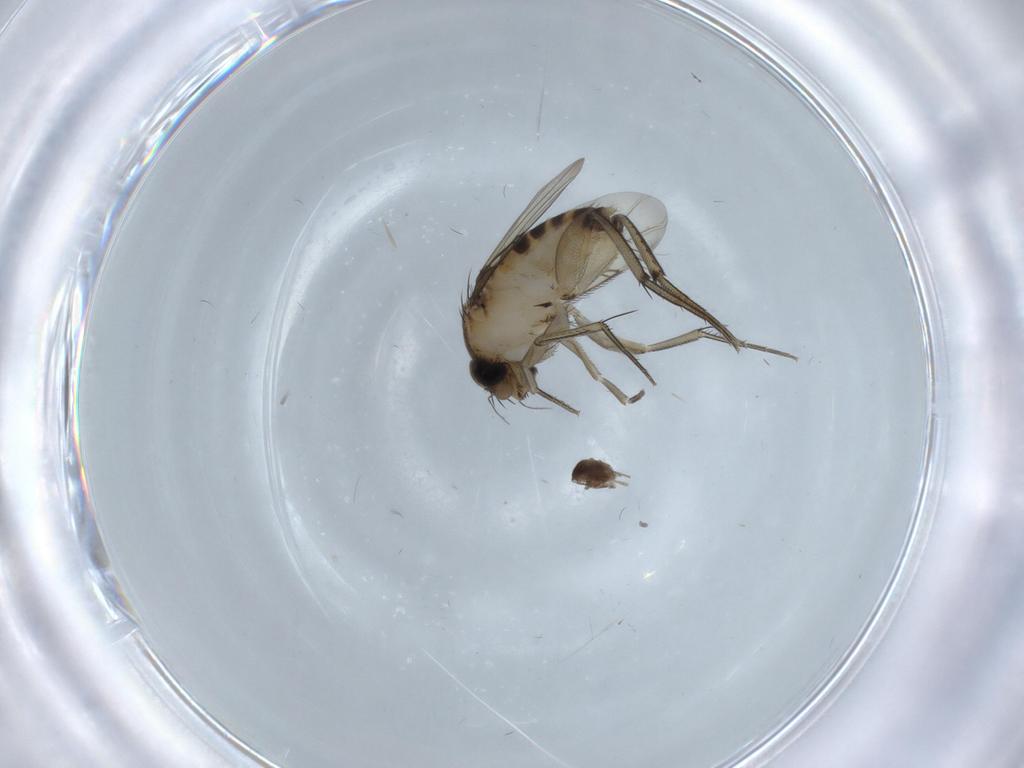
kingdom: Animalia
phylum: Arthropoda
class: Insecta
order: Diptera
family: Phoridae
